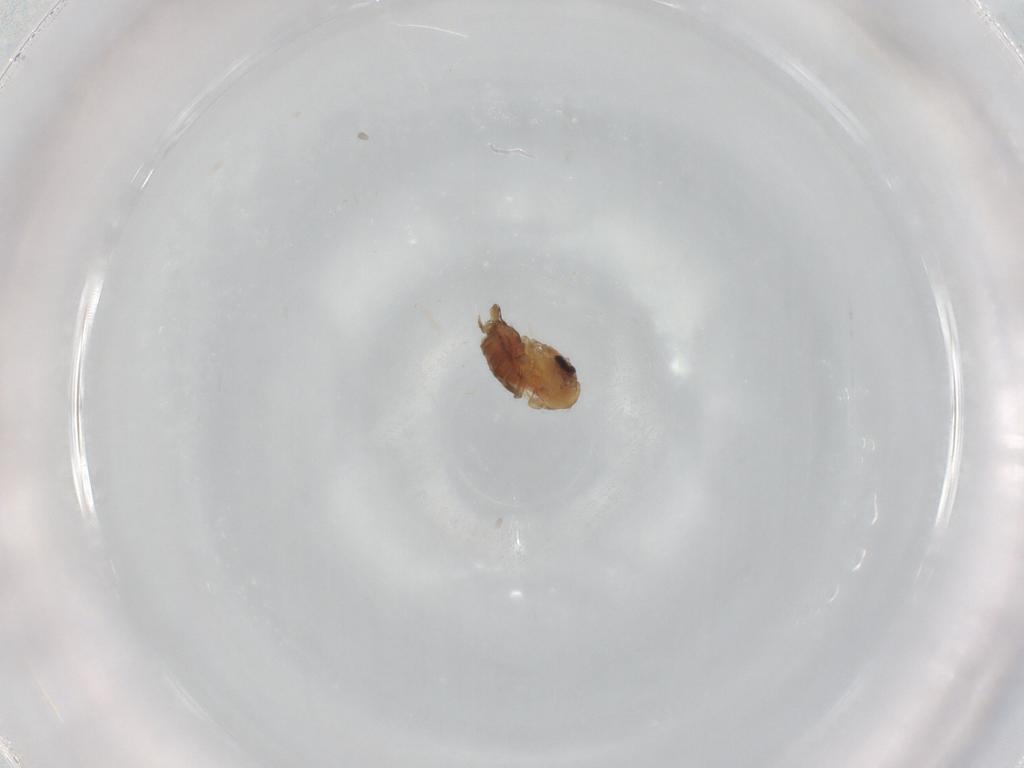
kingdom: Animalia
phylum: Arthropoda
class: Insecta
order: Diptera
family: Psychodidae
